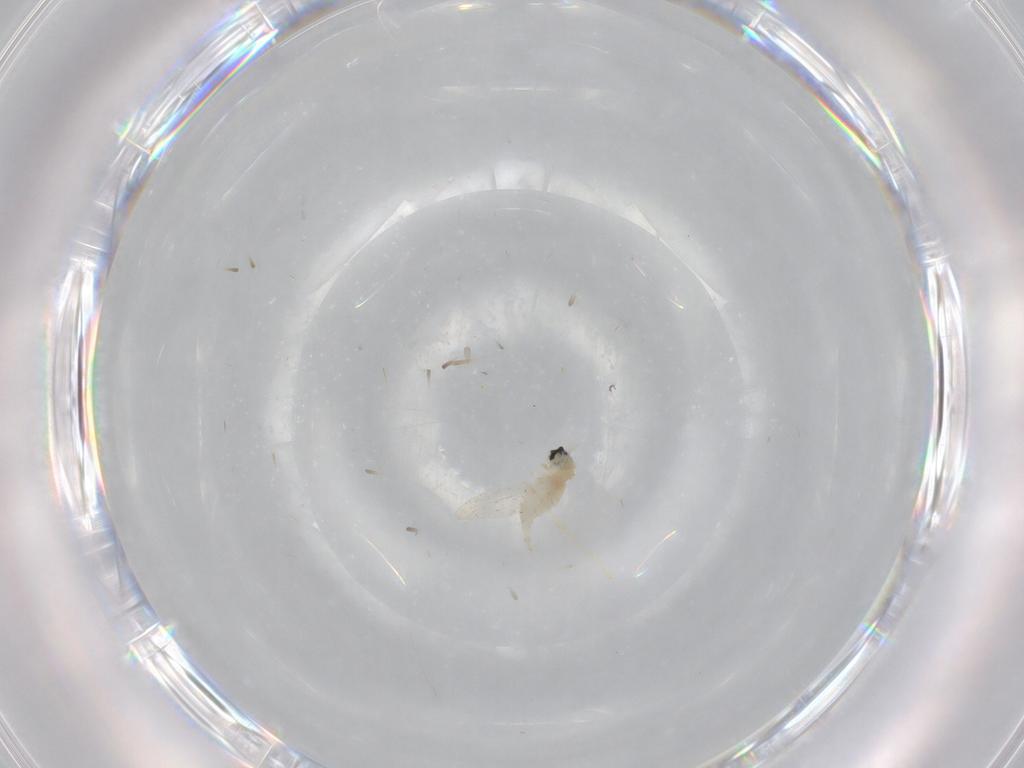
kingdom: Animalia
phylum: Arthropoda
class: Insecta
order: Diptera
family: Cecidomyiidae
